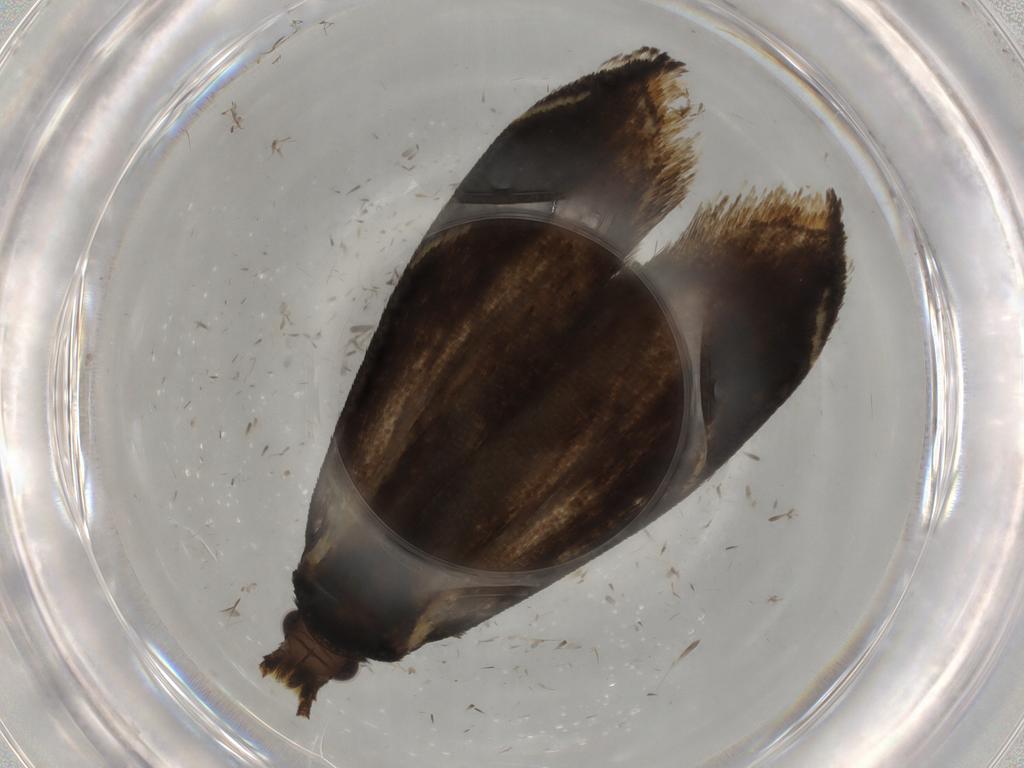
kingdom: Animalia
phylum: Arthropoda
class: Insecta
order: Lepidoptera
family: Tineidae
